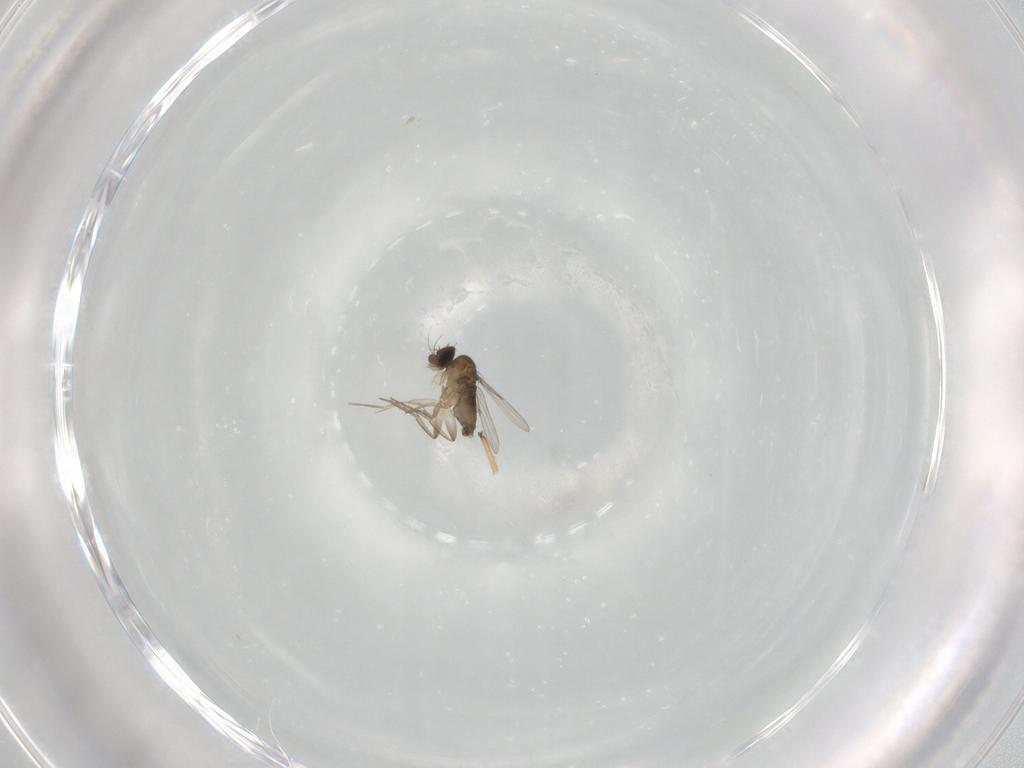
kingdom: Animalia
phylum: Arthropoda
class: Insecta
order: Diptera
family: Phoridae
